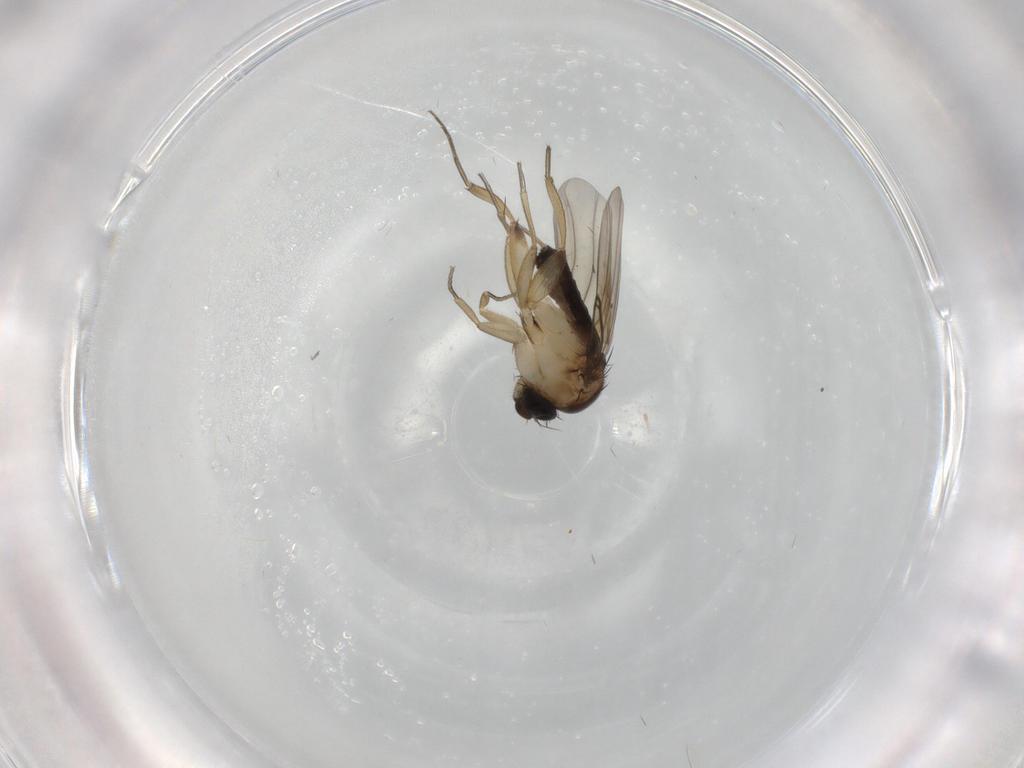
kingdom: Animalia
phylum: Arthropoda
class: Insecta
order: Diptera
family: Phoridae
